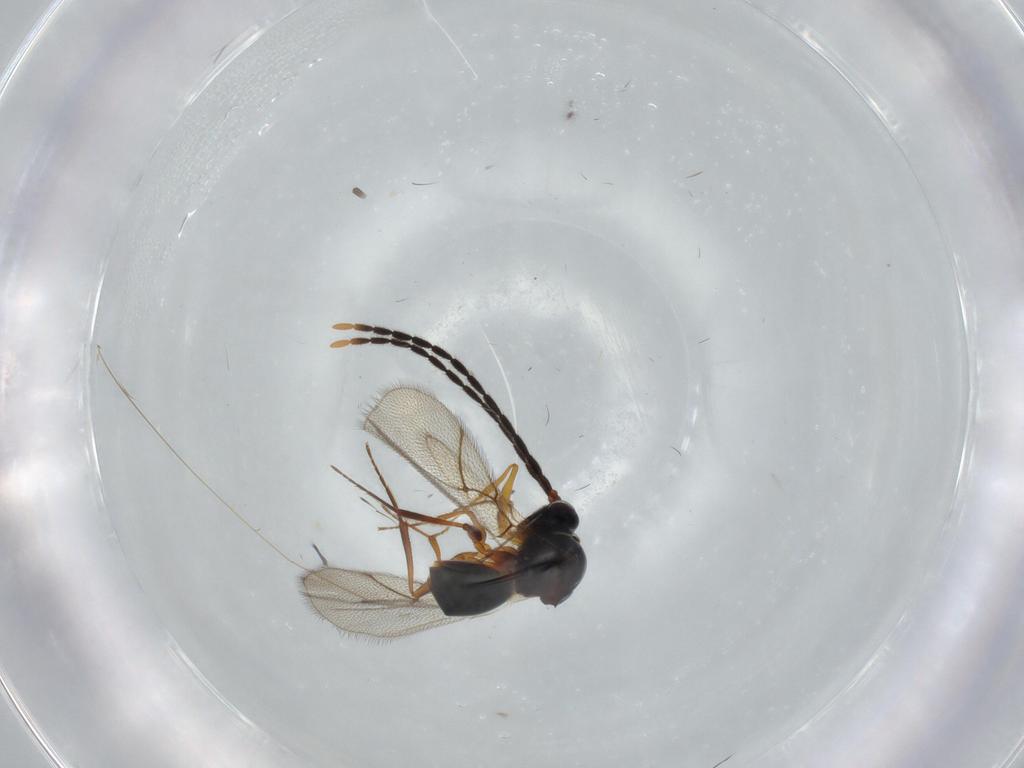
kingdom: Animalia
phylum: Arthropoda
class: Insecta
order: Hymenoptera
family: Figitidae
